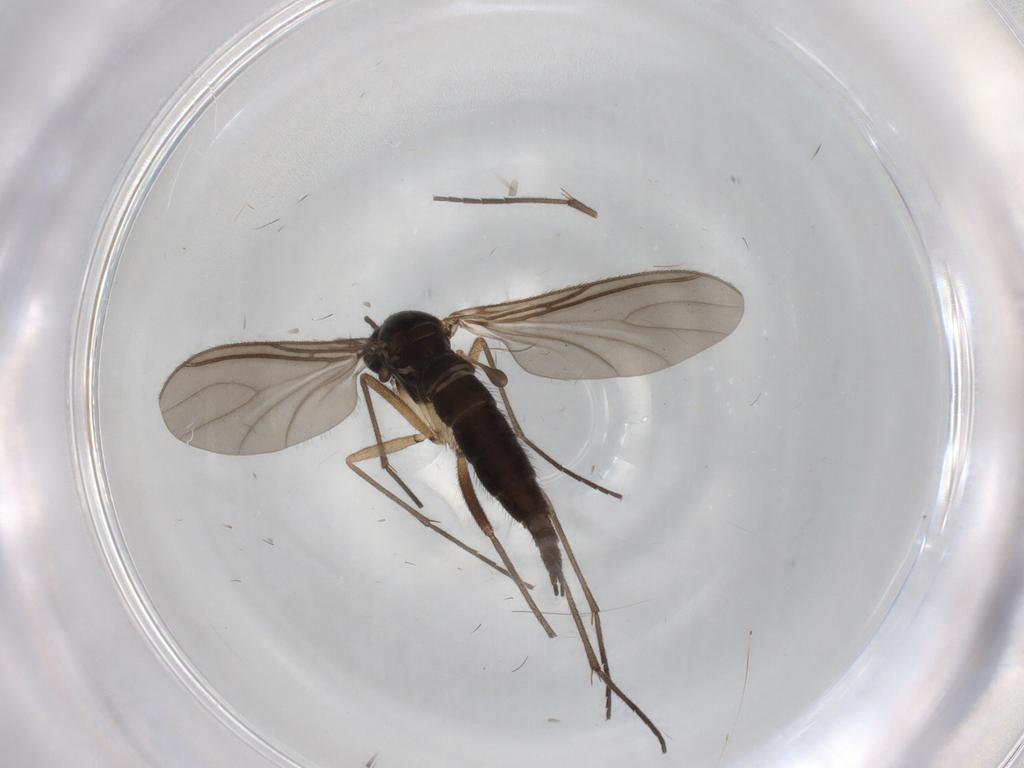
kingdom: Animalia
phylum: Arthropoda
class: Insecta
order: Diptera
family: Sciaridae
